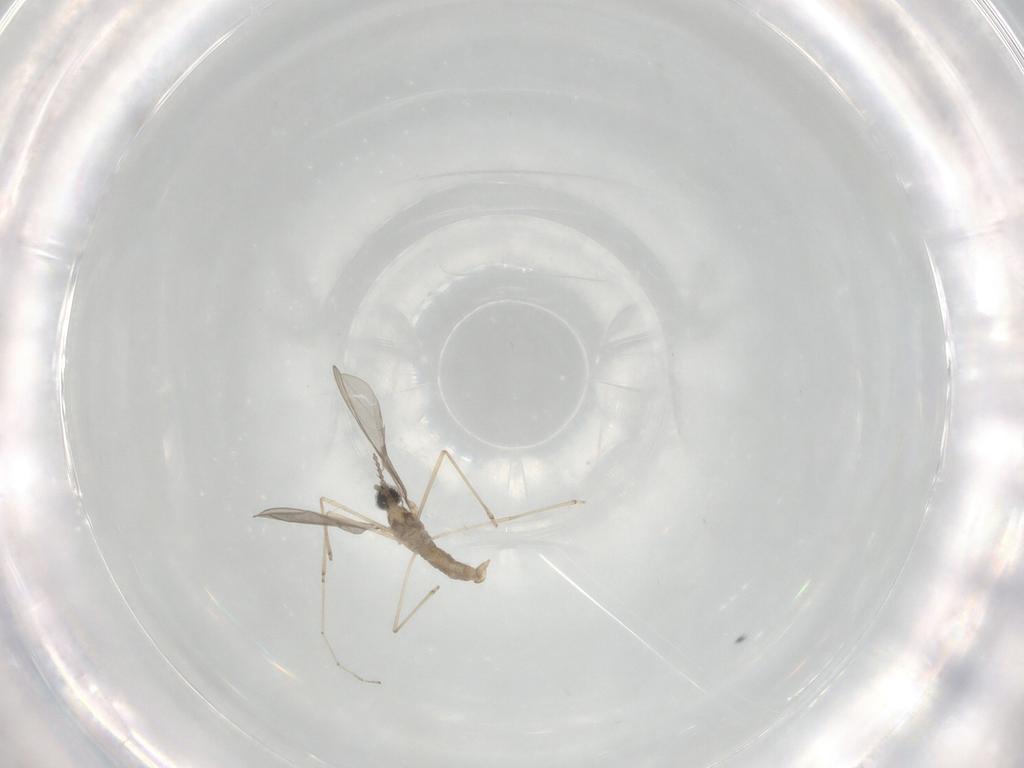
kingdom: Animalia
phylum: Arthropoda
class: Insecta
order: Diptera
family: Cecidomyiidae
